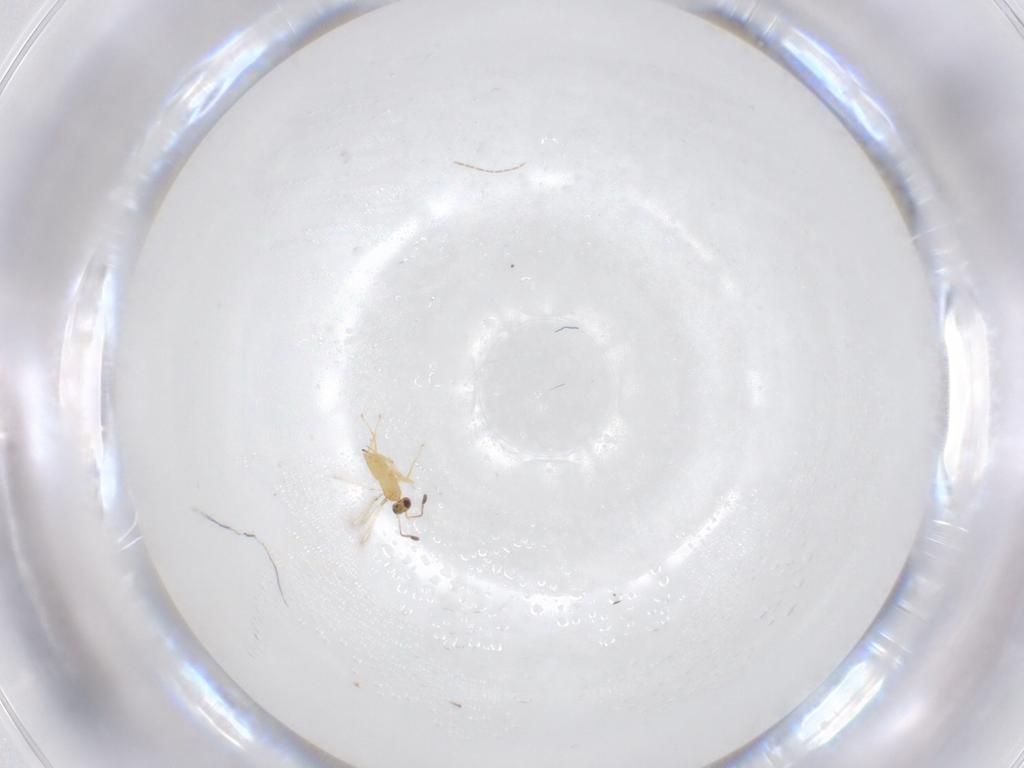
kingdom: Animalia
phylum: Arthropoda
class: Insecta
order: Hymenoptera
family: Mymaridae
